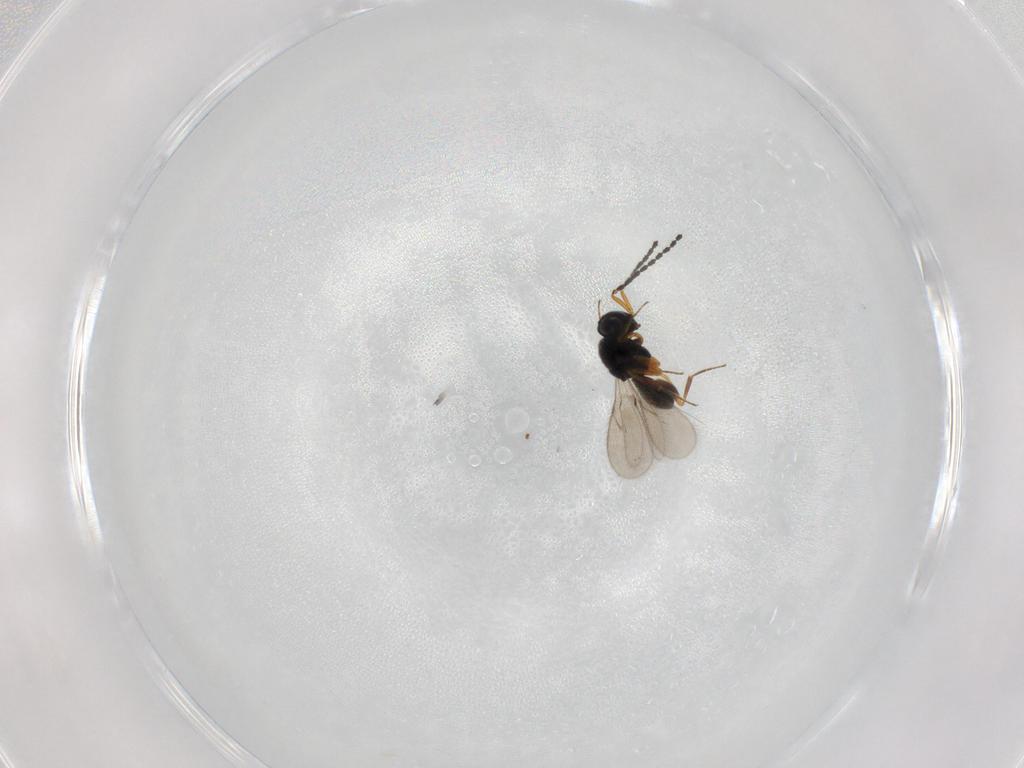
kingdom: Animalia
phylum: Arthropoda
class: Insecta
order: Hymenoptera
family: Scelionidae
